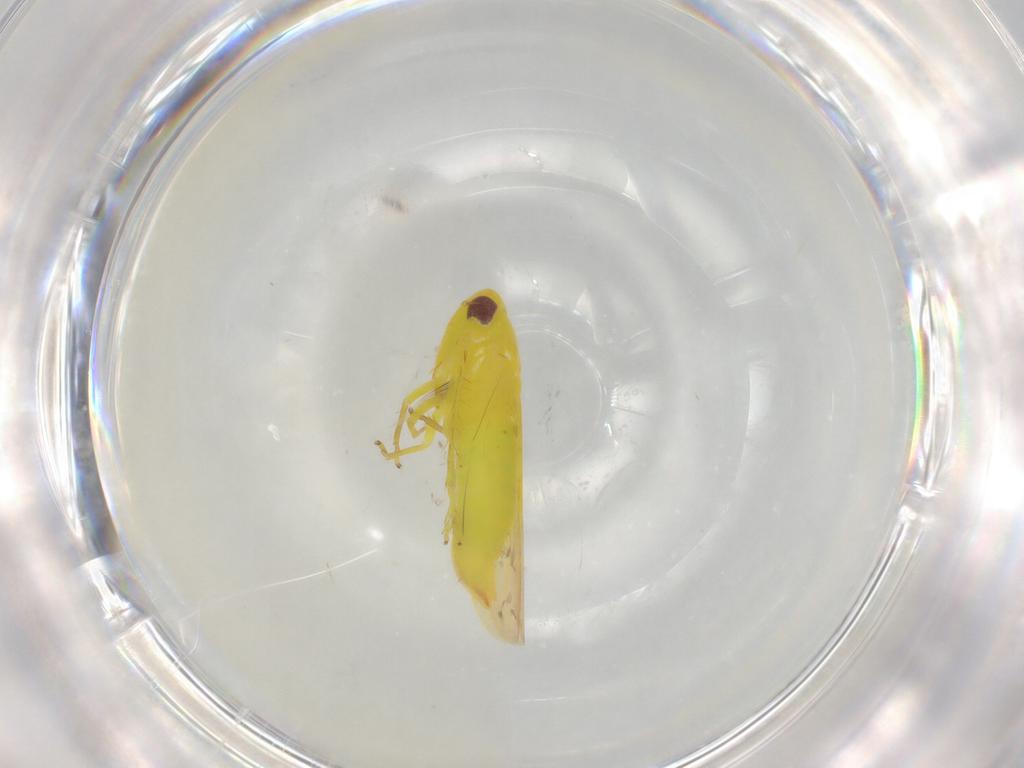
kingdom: Animalia
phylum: Arthropoda
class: Insecta
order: Hemiptera
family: Cicadellidae
